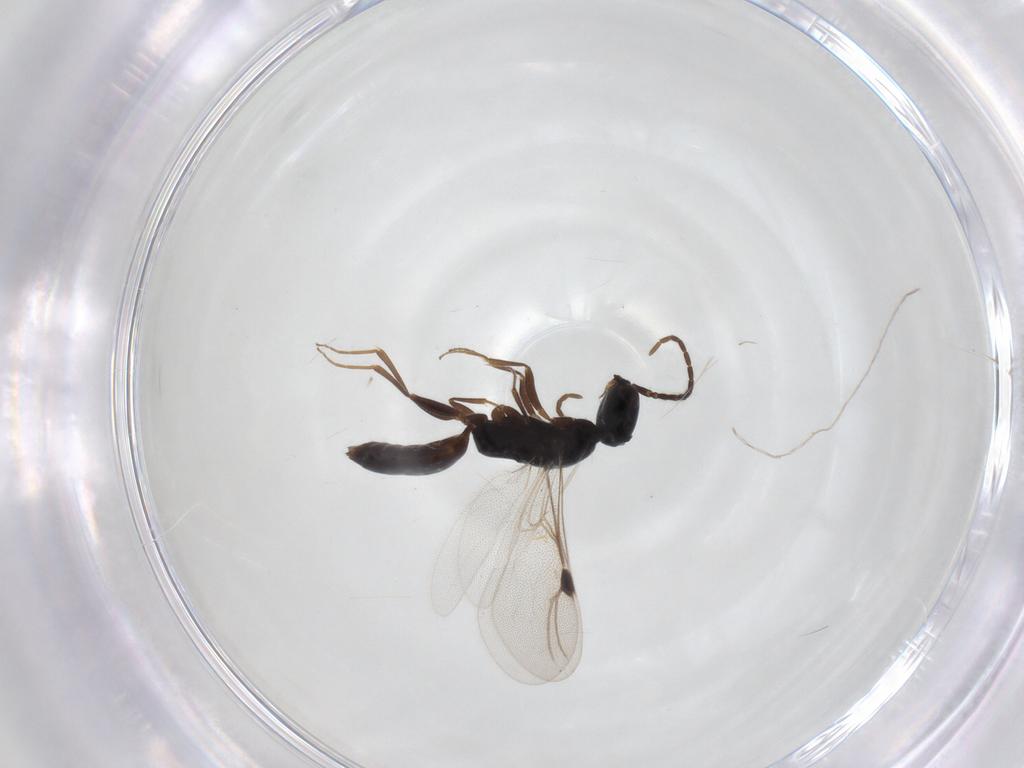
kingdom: Animalia
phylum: Arthropoda
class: Insecta
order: Hymenoptera
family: Bethylidae
